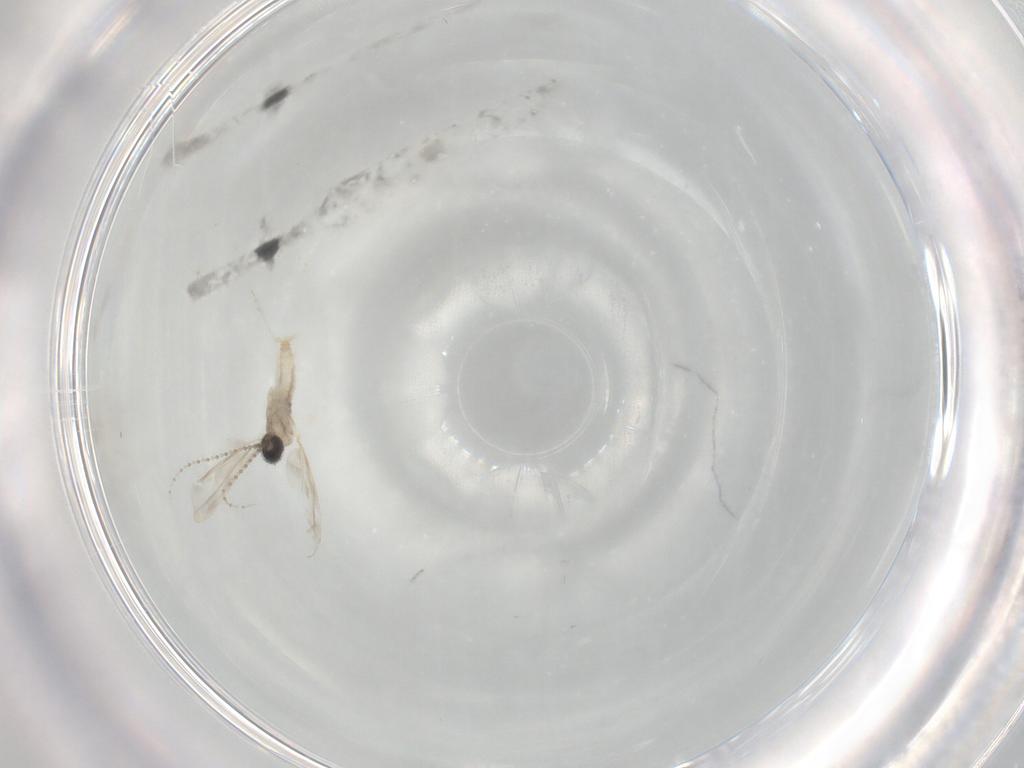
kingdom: Animalia
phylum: Arthropoda
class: Insecta
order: Diptera
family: Cecidomyiidae
